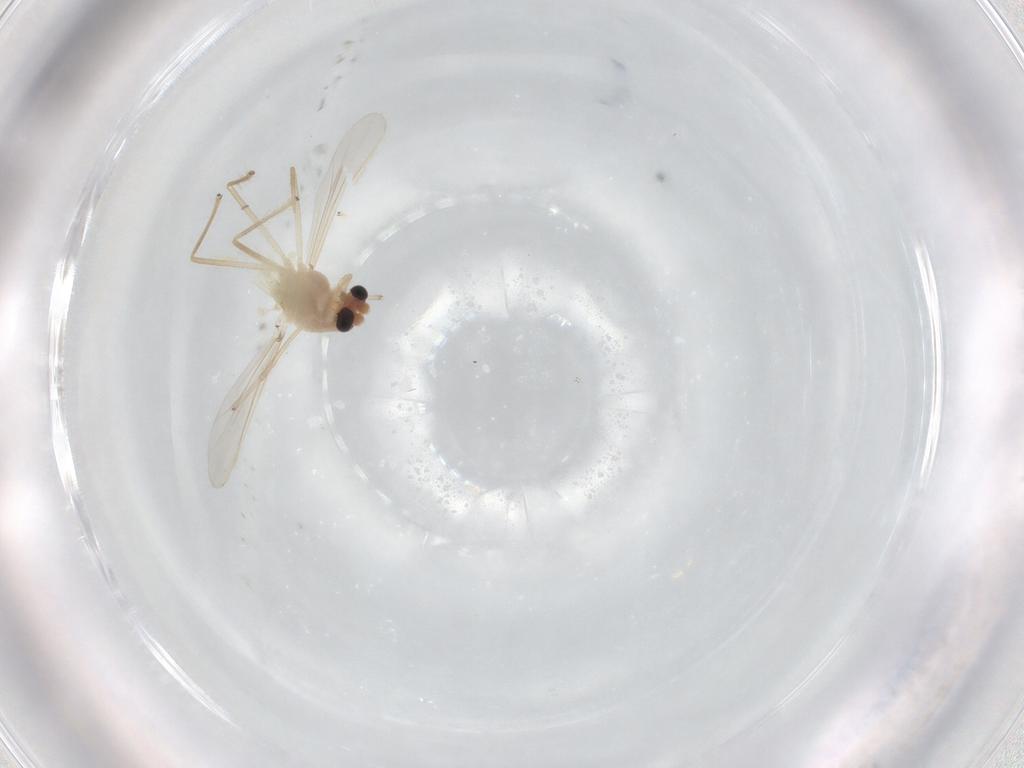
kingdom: Animalia
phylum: Arthropoda
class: Insecta
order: Diptera
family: Chironomidae
